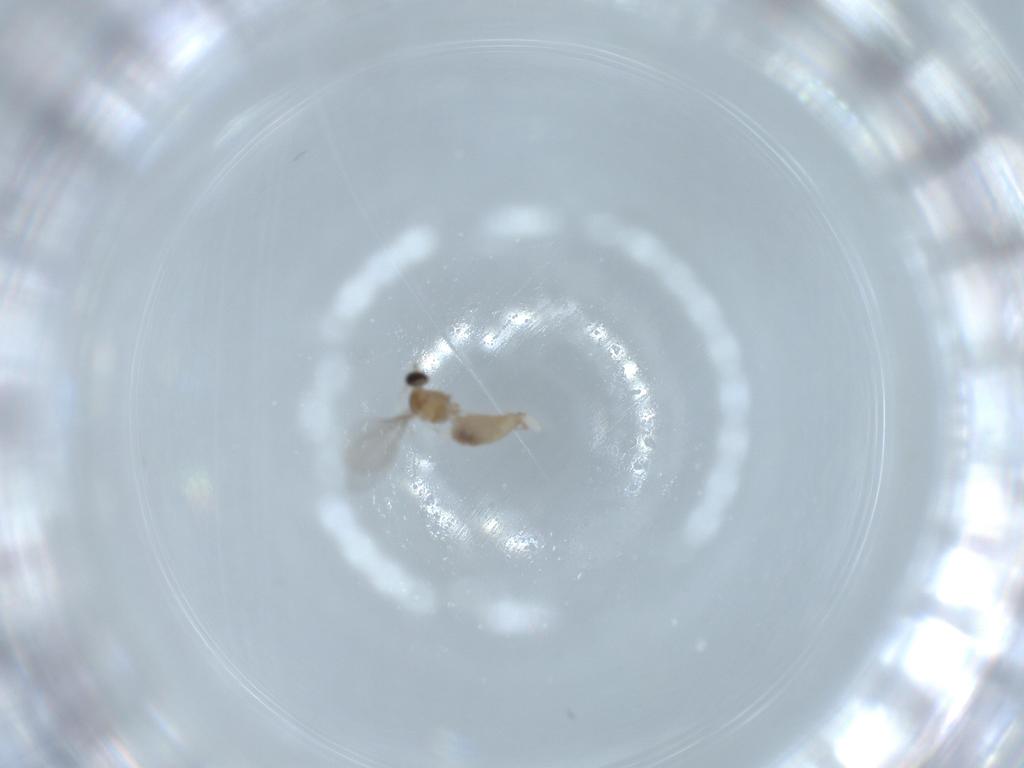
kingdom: Animalia
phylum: Arthropoda
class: Insecta
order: Diptera
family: Cecidomyiidae
